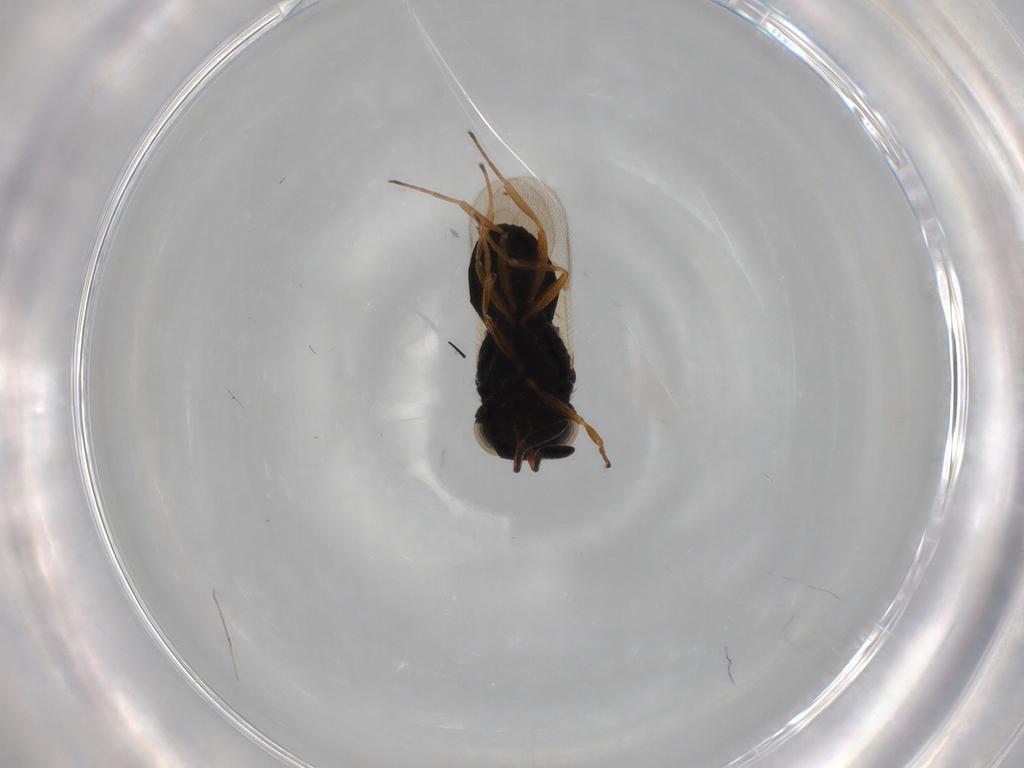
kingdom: Animalia
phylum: Arthropoda
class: Insecta
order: Hymenoptera
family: Scelionidae
